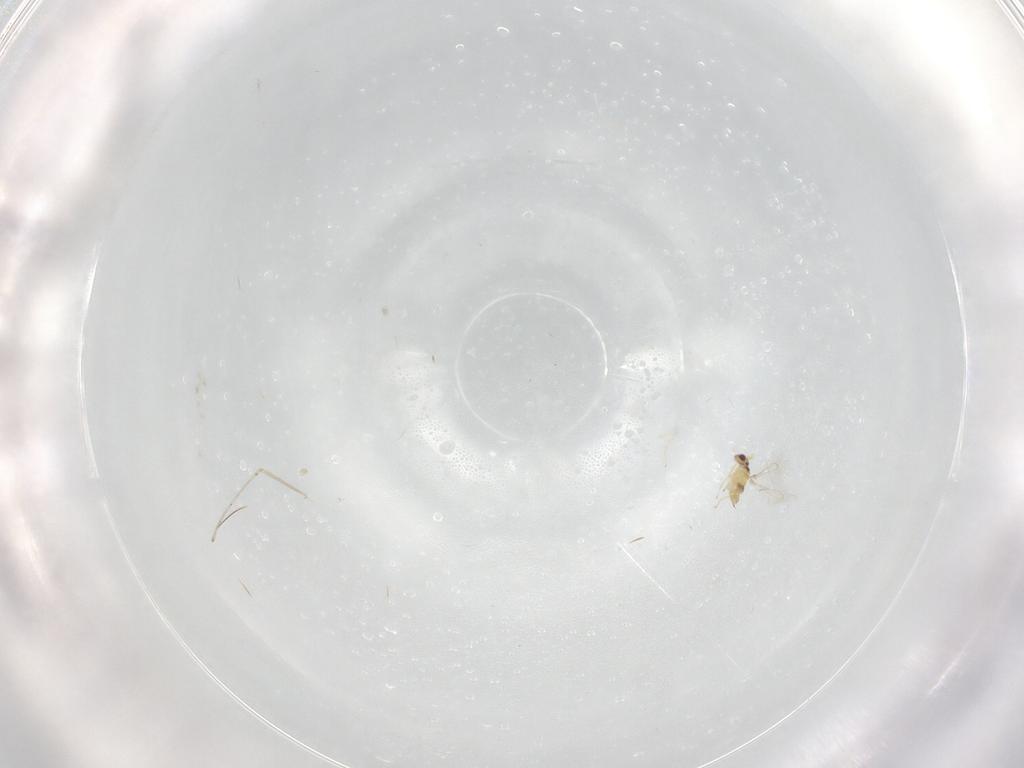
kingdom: Animalia
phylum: Arthropoda
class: Insecta
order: Hymenoptera
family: Mymaridae
